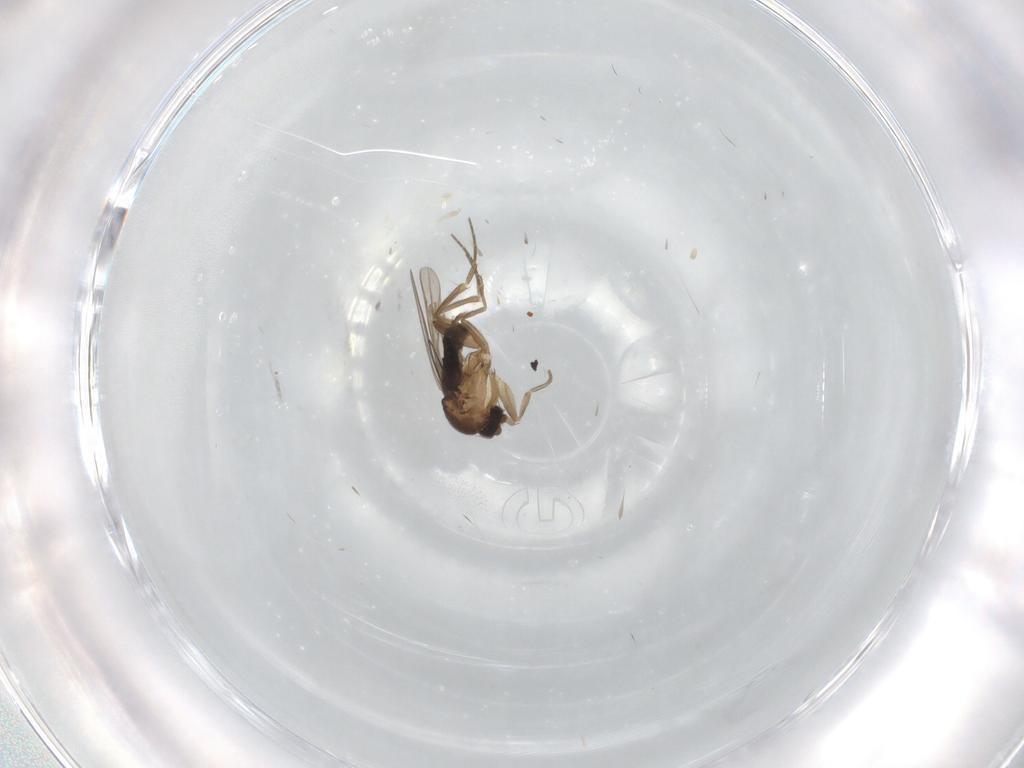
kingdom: Animalia
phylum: Arthropoda
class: Insecta
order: Diptera
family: Phoridae
